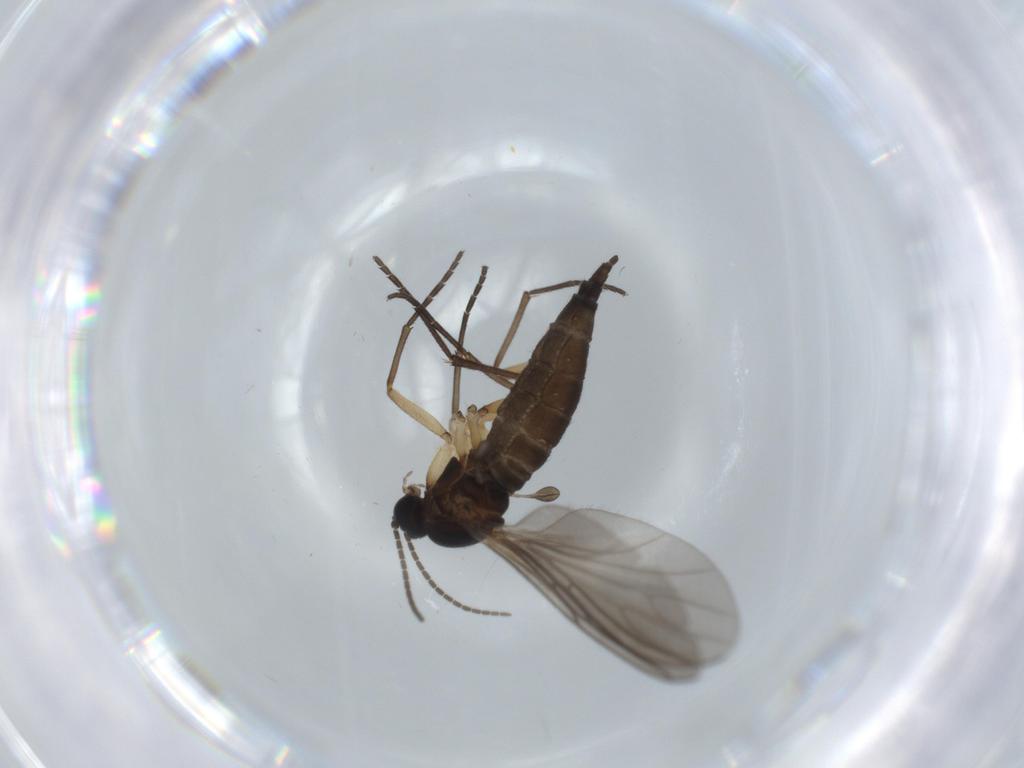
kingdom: Animalia
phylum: Arthropoda
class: Insecta
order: Diptera
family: Sciaridae
